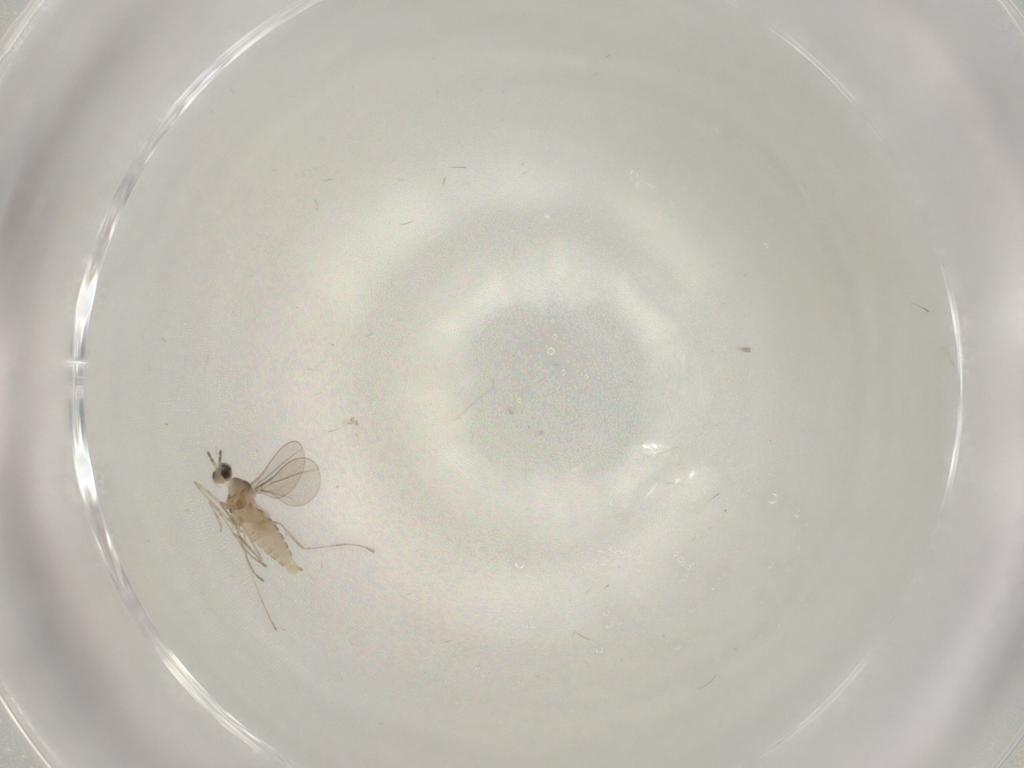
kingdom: Animalia
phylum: Arthropoda
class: Insecta
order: Diptera
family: Cecidomyiidae
